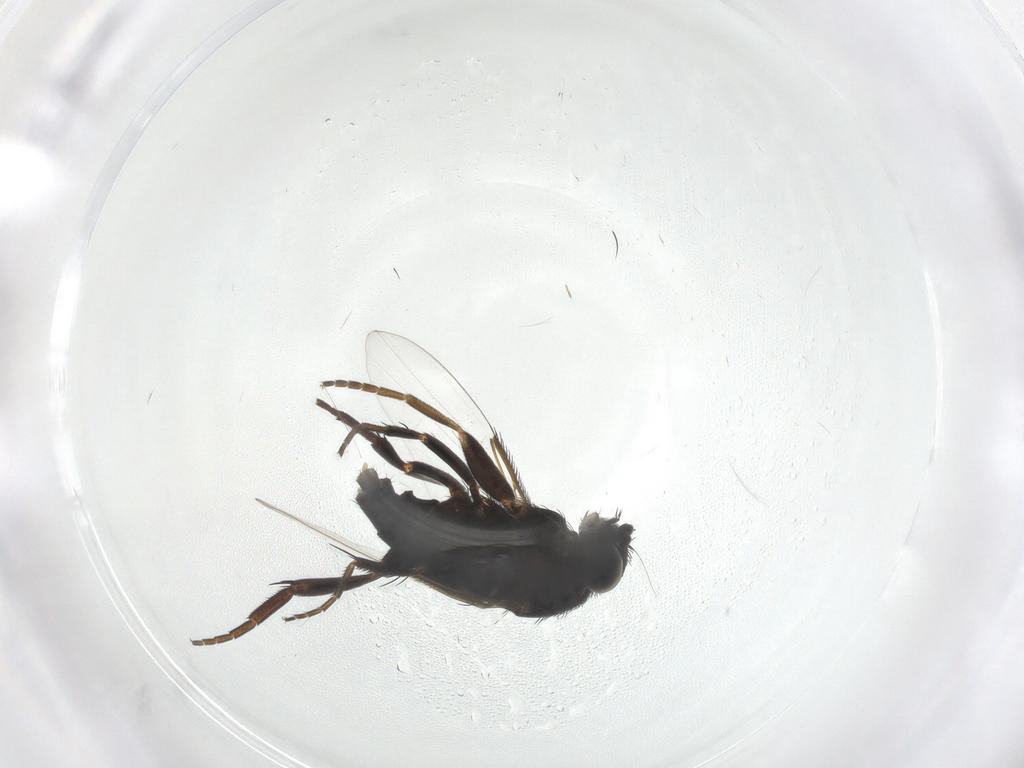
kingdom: Animalia
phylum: Arthropoda
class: Insecta
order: Diptera
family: Phoridae
